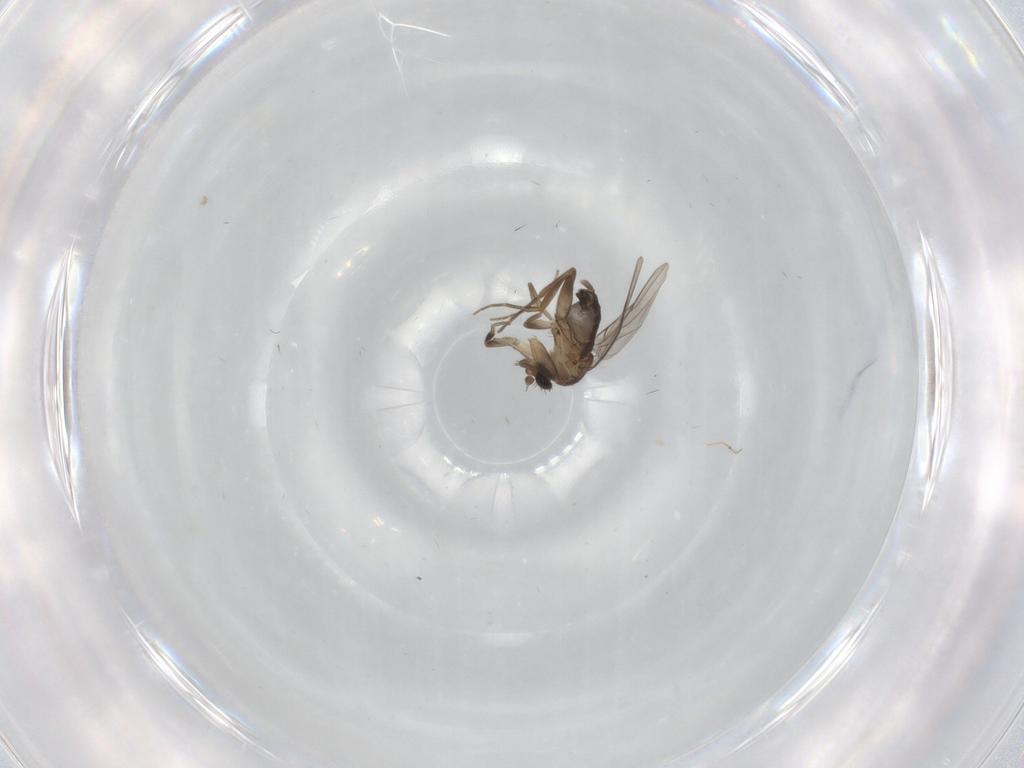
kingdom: Animalia
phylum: Arthropoda
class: Insecta
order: Diptera
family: Phoridae
